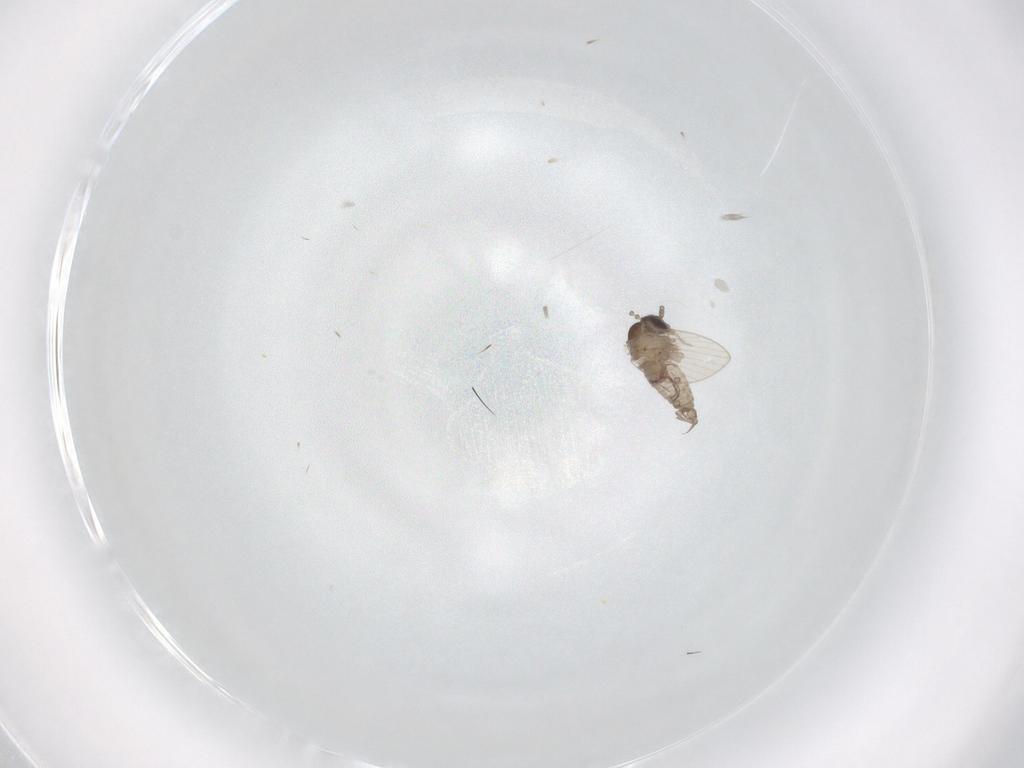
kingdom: Animalia
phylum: Arthropoda
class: Insecta
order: Diptera
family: Psychodidae
